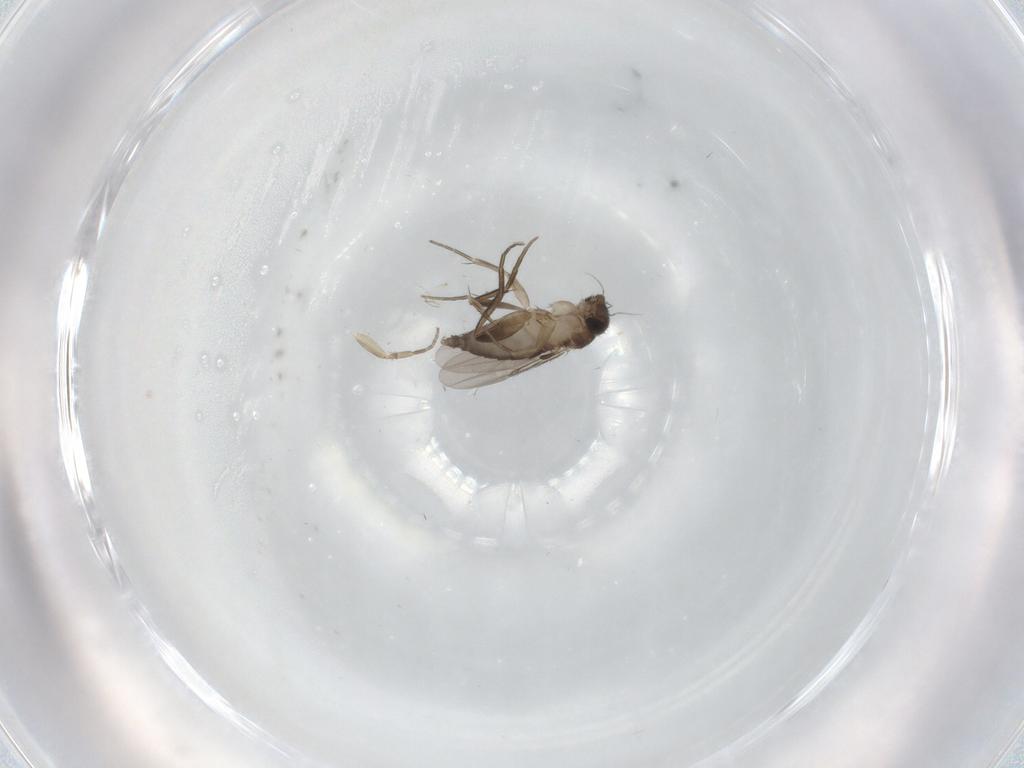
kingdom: Animalia
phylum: Arthropoda
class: Insecta
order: Diptera
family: Phoridae
